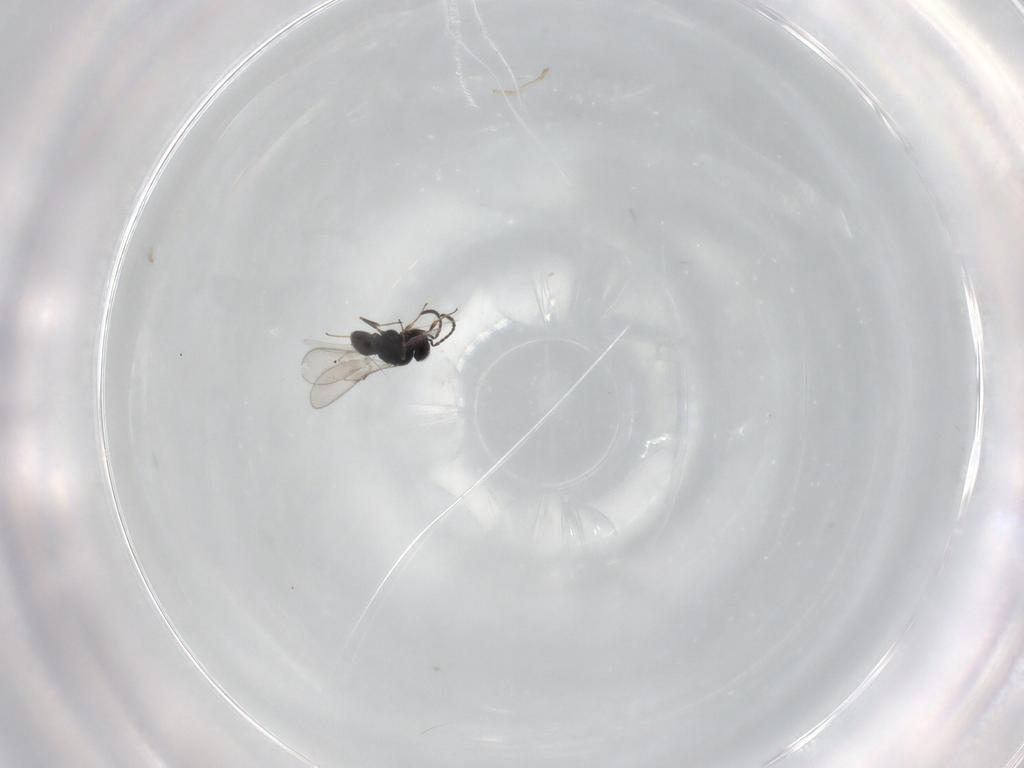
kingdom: Animalia
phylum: Arthropoda
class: Insecta
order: Hymenoptera
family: Scelionidae
